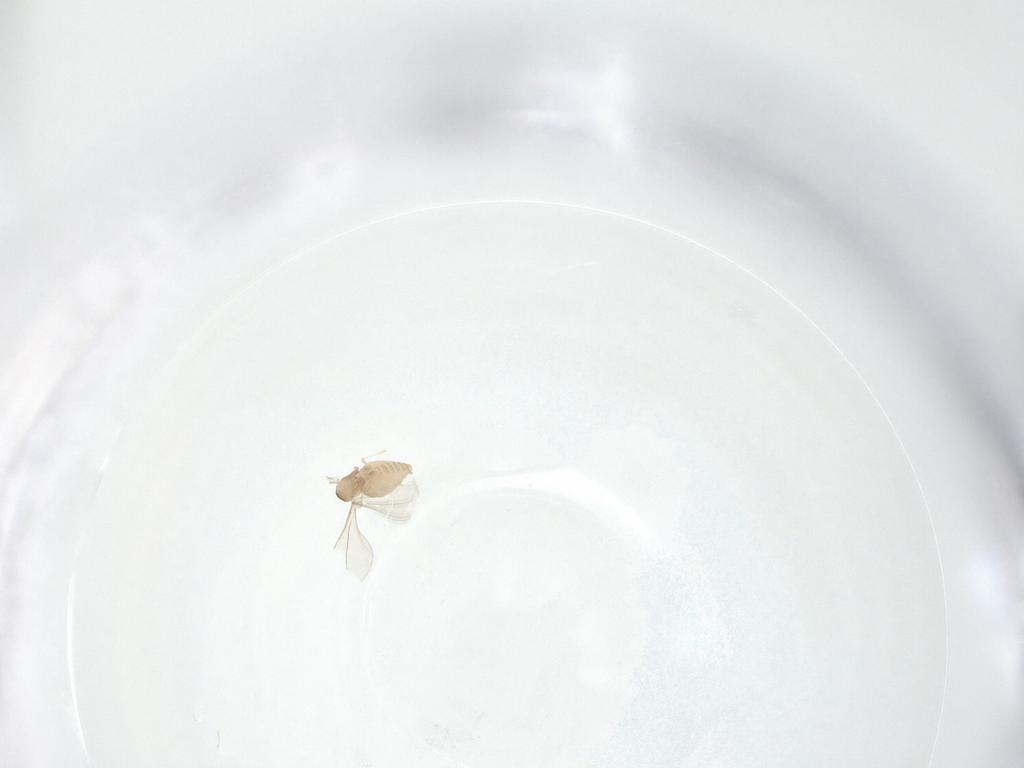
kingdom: Animalia
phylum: Arthropoda
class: Insecta
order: Diptera
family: Cecidomyiidae
